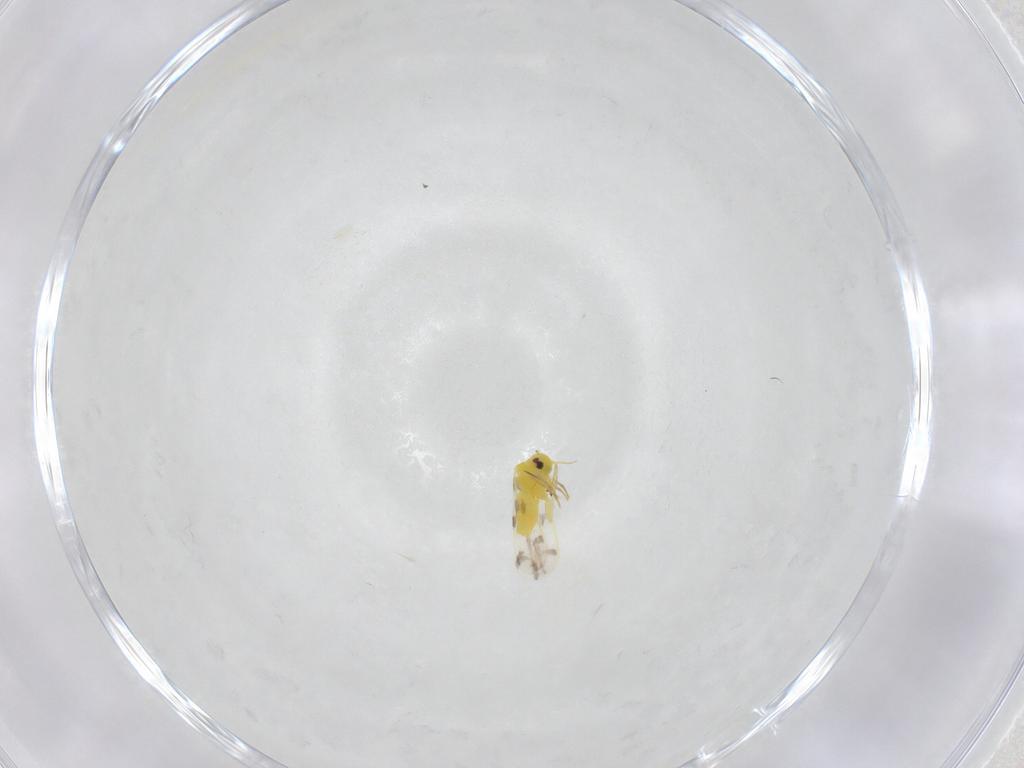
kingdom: Animalia
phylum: Arthropoda
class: Insecta
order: Hemiptera
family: Aleyrodidae
